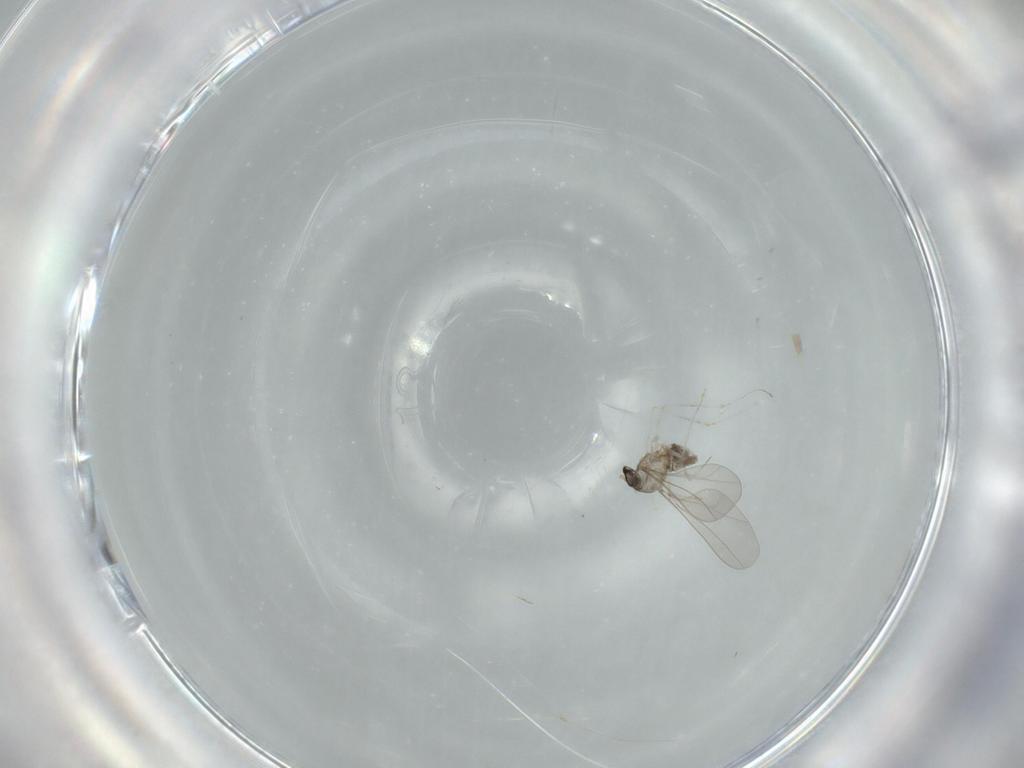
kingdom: Animalia
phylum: Arthropoda
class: Insecta
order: Diptera
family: Cecidomyiidae
